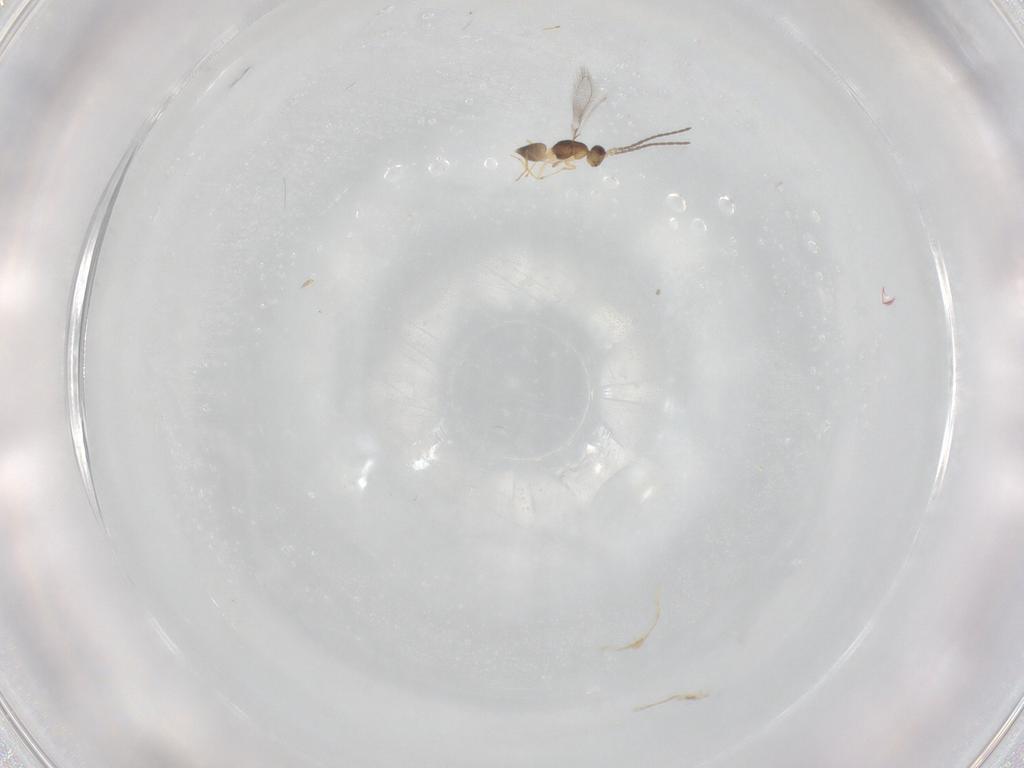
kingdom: Animalia
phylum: Arthropoda
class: Insecta
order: Hymenoptera
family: Mymaridae
